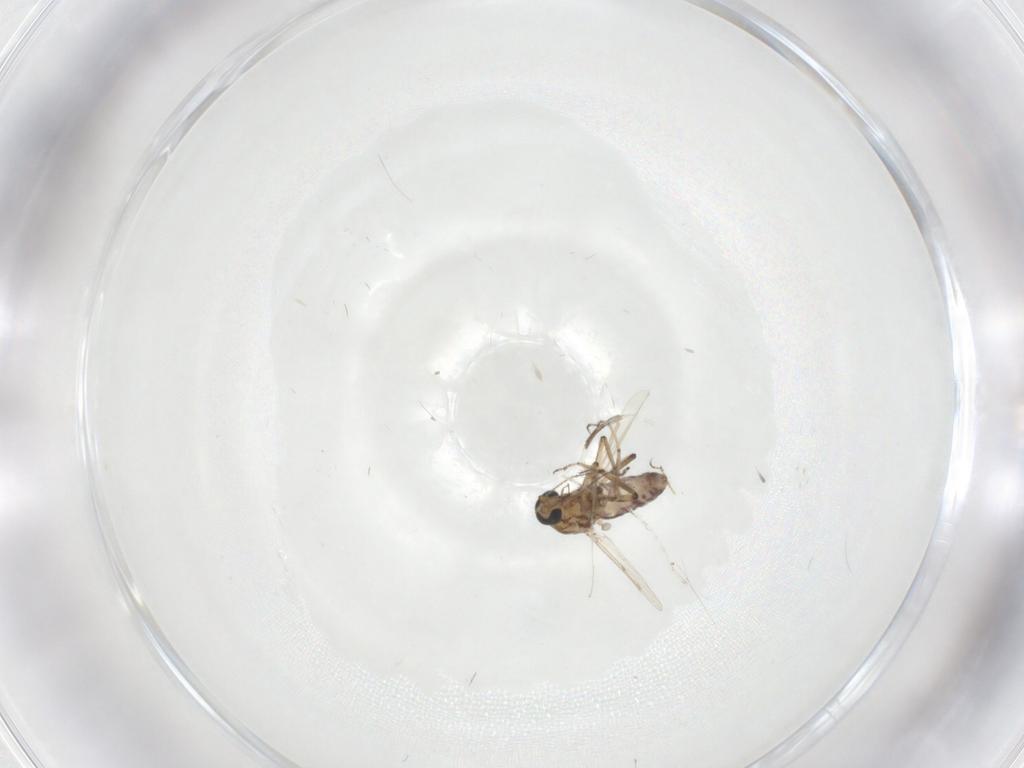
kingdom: Animalia
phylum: Arthropoda
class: Insecta
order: Diptera
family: Ceratopogonidae
